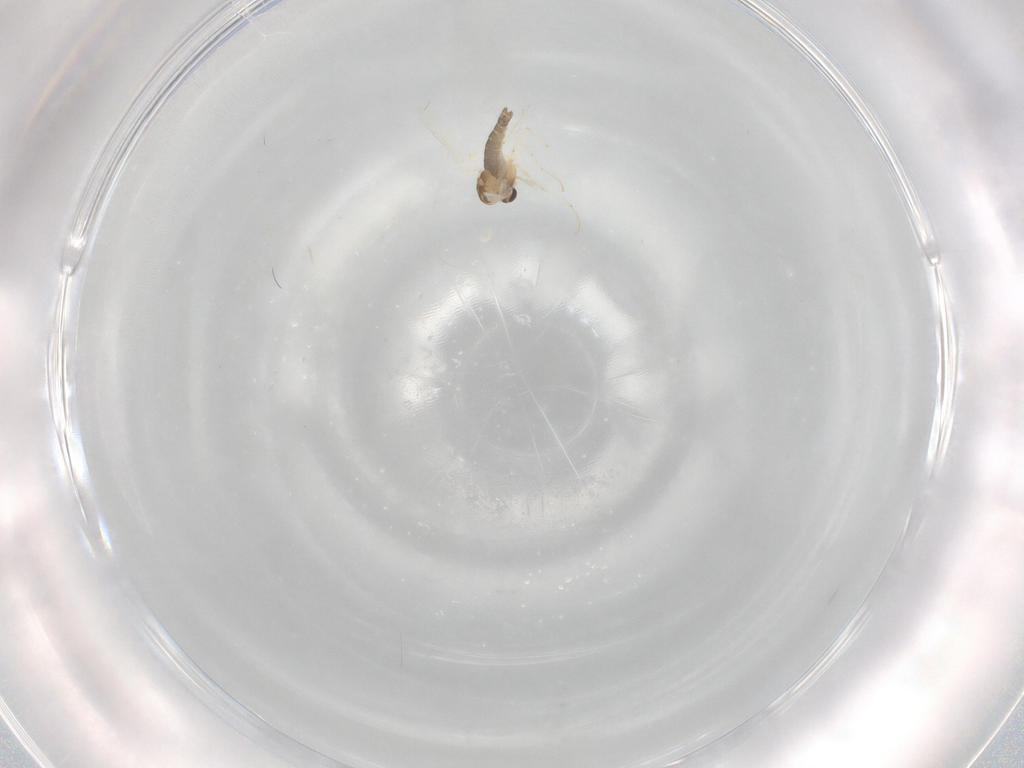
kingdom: Animalia
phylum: Arthropoda
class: Insecta
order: Diptera
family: Chironomidae
